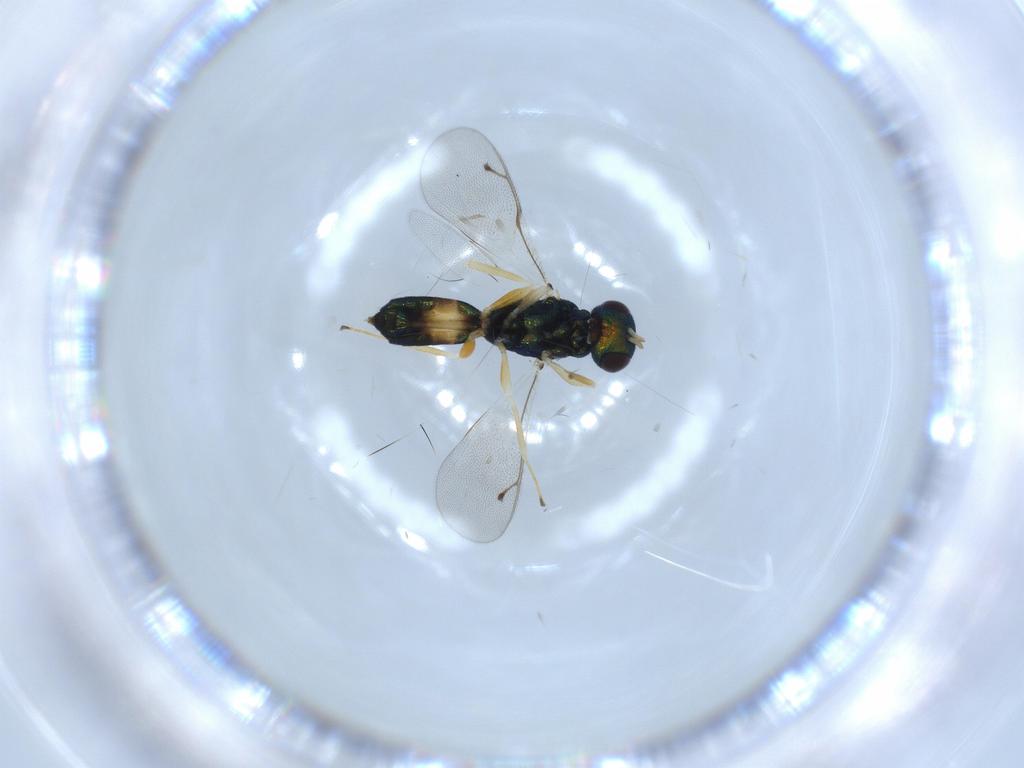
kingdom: Animalia
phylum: Arthropoda
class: Insecta
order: Hymenoptera
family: Pteromalidae
